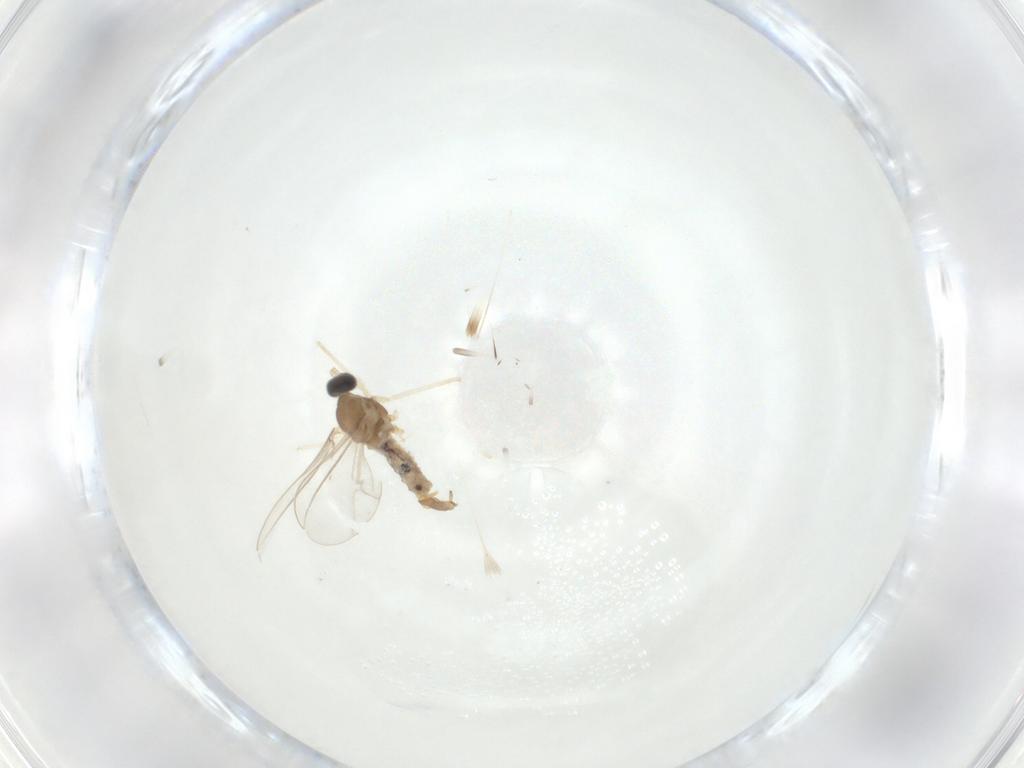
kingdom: Animalia
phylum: Arthropoda
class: Insecta
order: Diptera
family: Cecidomyiidae
